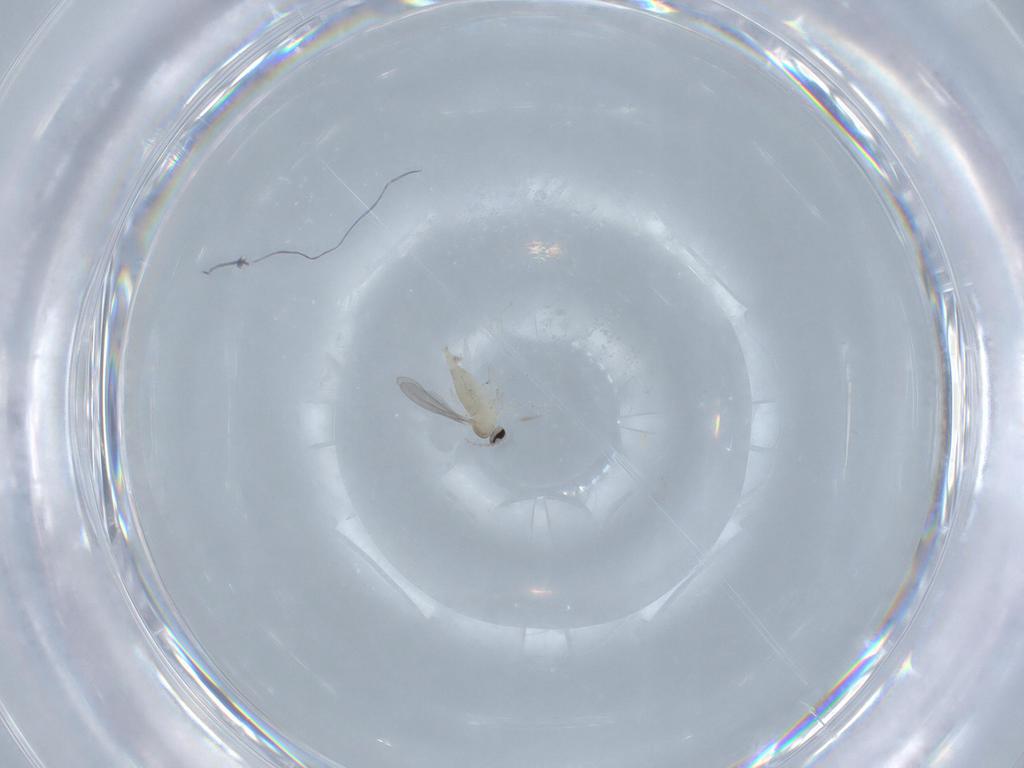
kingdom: Animalia
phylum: Arthropoda
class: Insecta
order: Diptera
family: Cecidomyiidae
